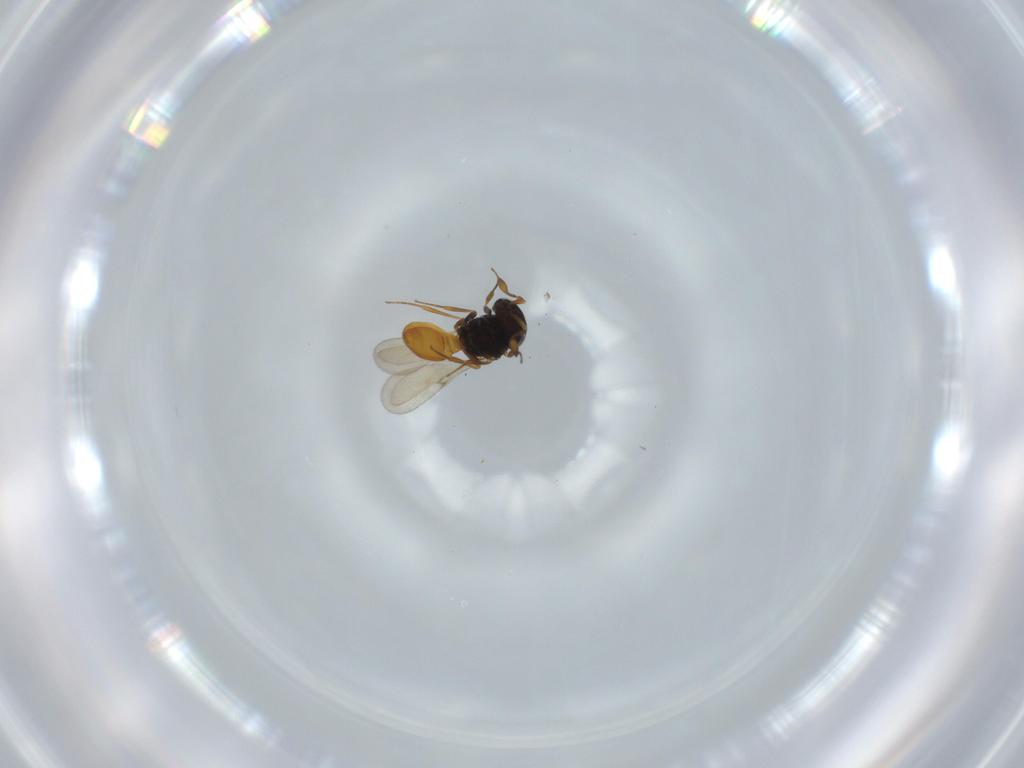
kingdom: Animalia
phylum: Arthropoda
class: Insecta
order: Hymenoptera
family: Scelionidae
